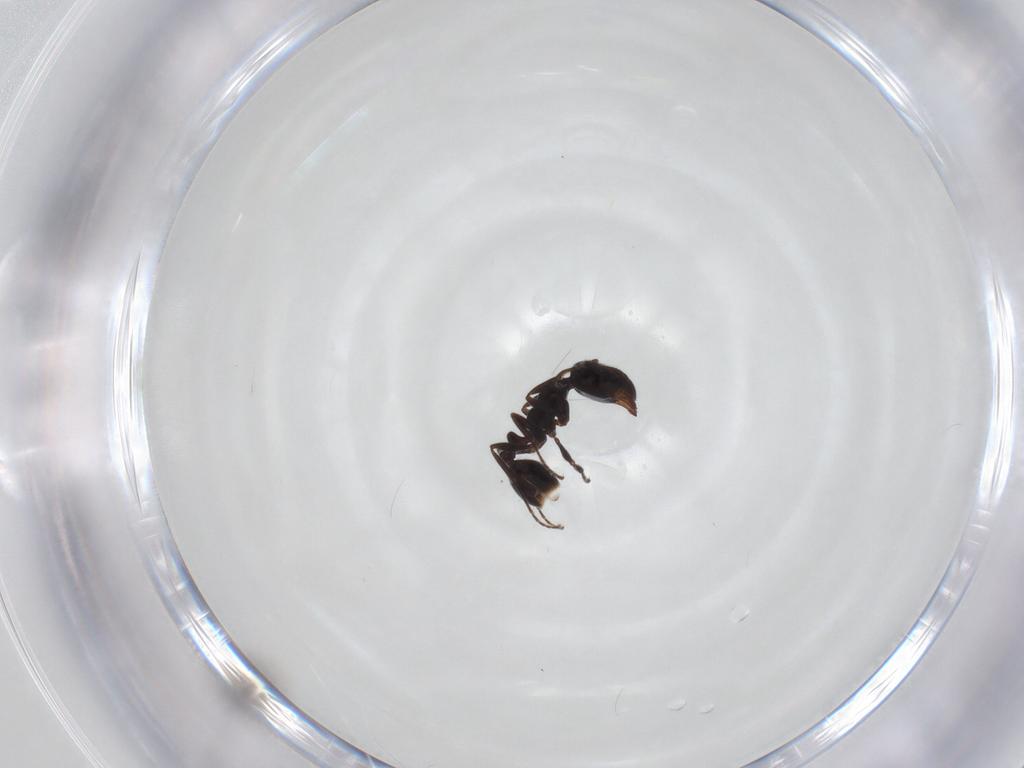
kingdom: Animalia
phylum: Arthropoda
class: Insecta
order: Hymenoptera
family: Formicidae
